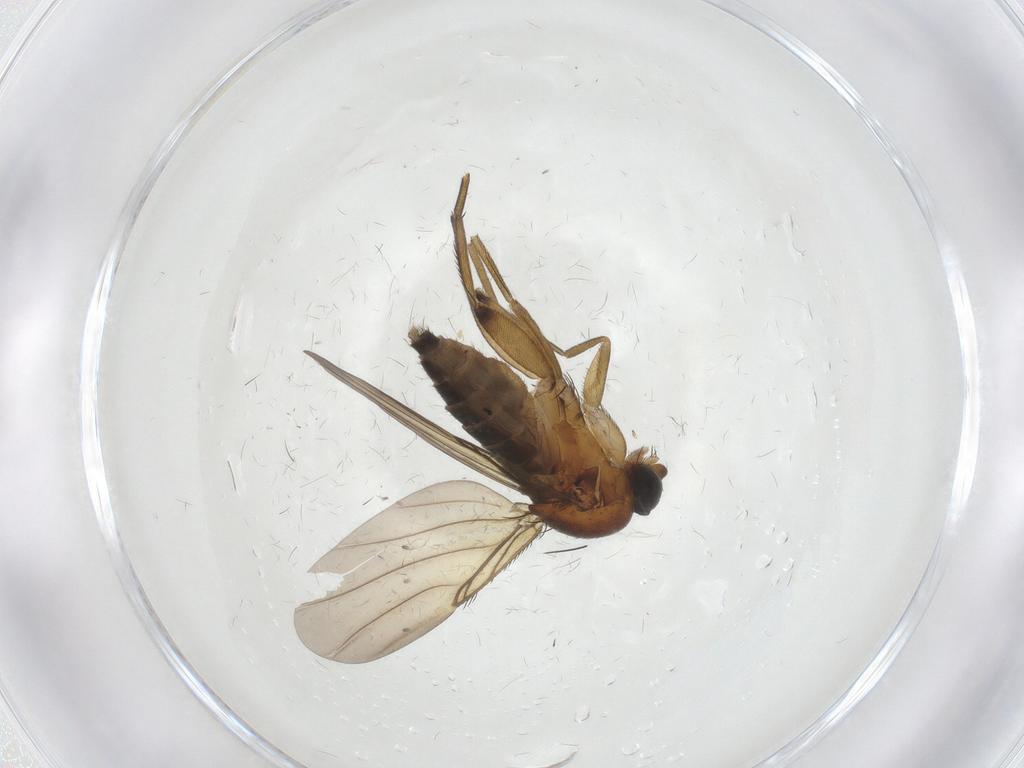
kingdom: Animalia
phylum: Arthropoda
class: Insecta
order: Diptera
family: Phoridae
